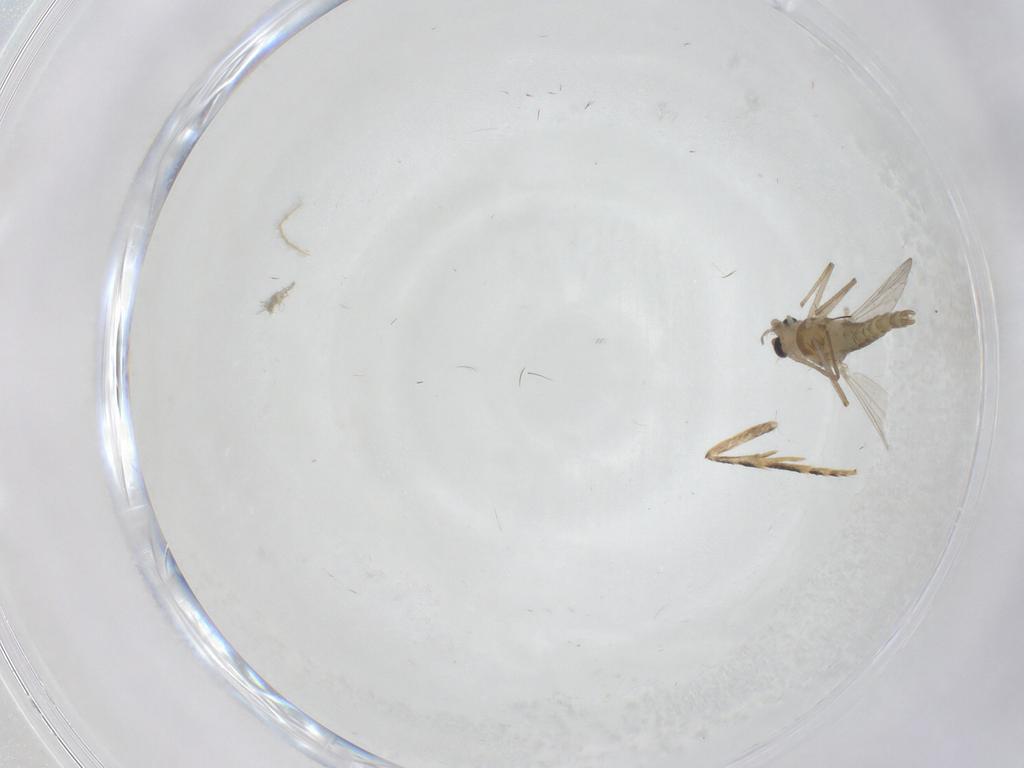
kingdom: Animalia
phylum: Arthropoda
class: Insecta
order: Diptera
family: Chironomidae
